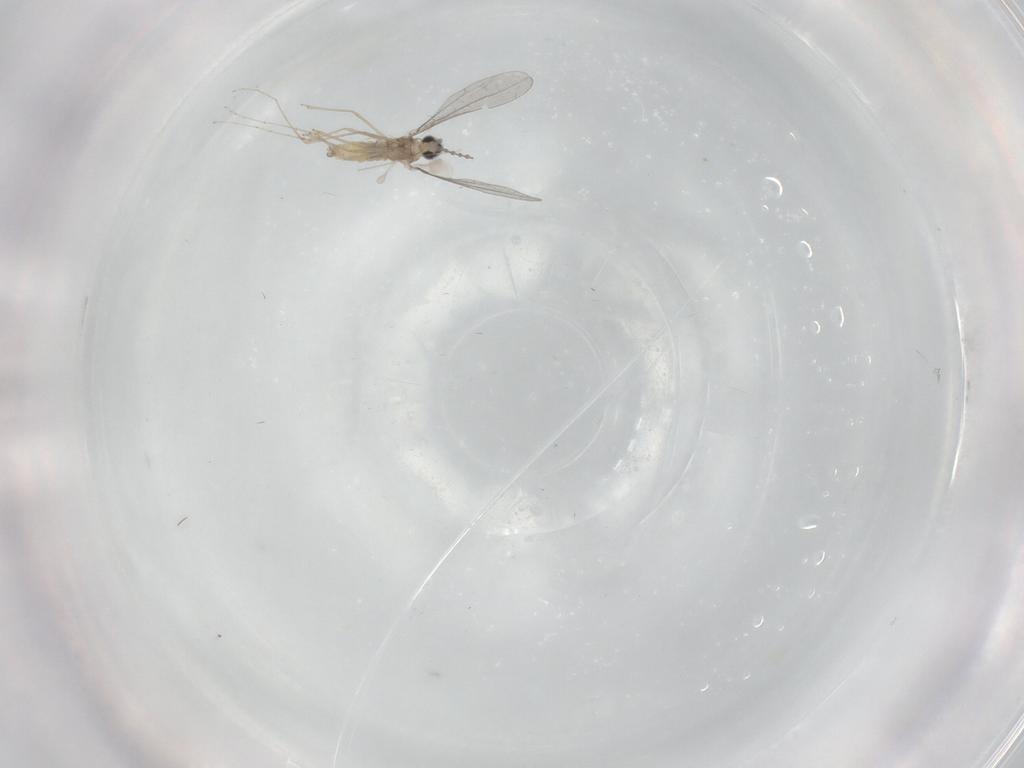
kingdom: Animalia
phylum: Arthropoda
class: Insecta
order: Diptera
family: Cecidomyiidae
